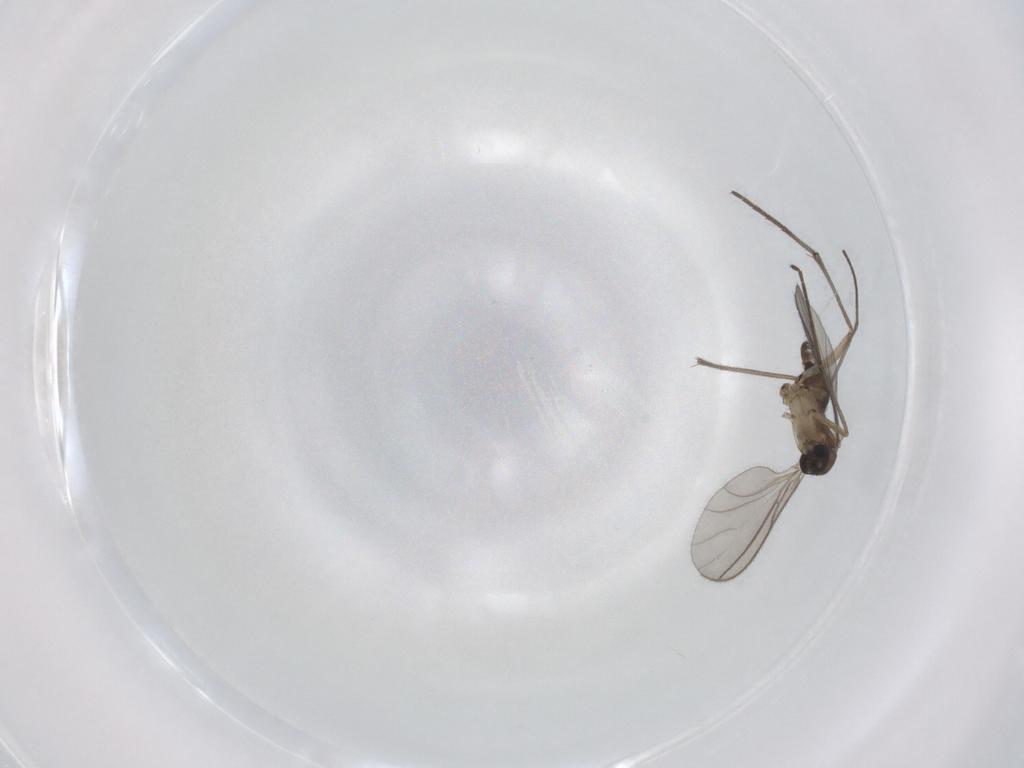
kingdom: Animalia
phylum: Arthropoda
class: Insecta
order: Diptera
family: Sciaridae
